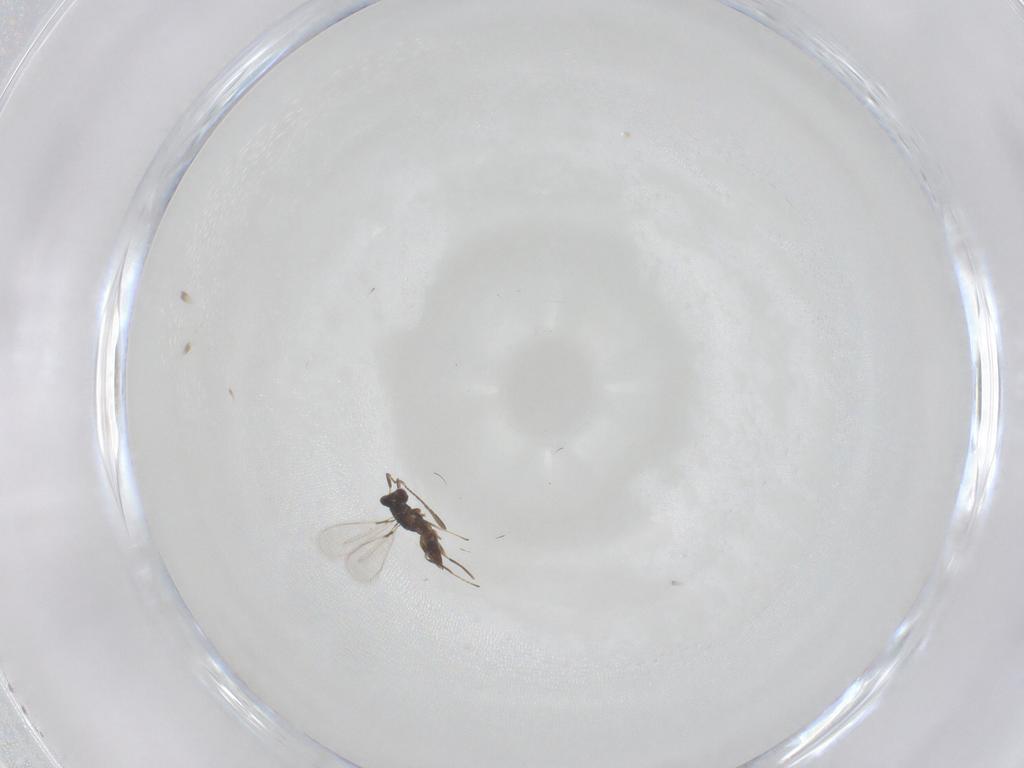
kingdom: Animalia
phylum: Arthropoda
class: Insecta
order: Hymenoptera
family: Mymaridae
